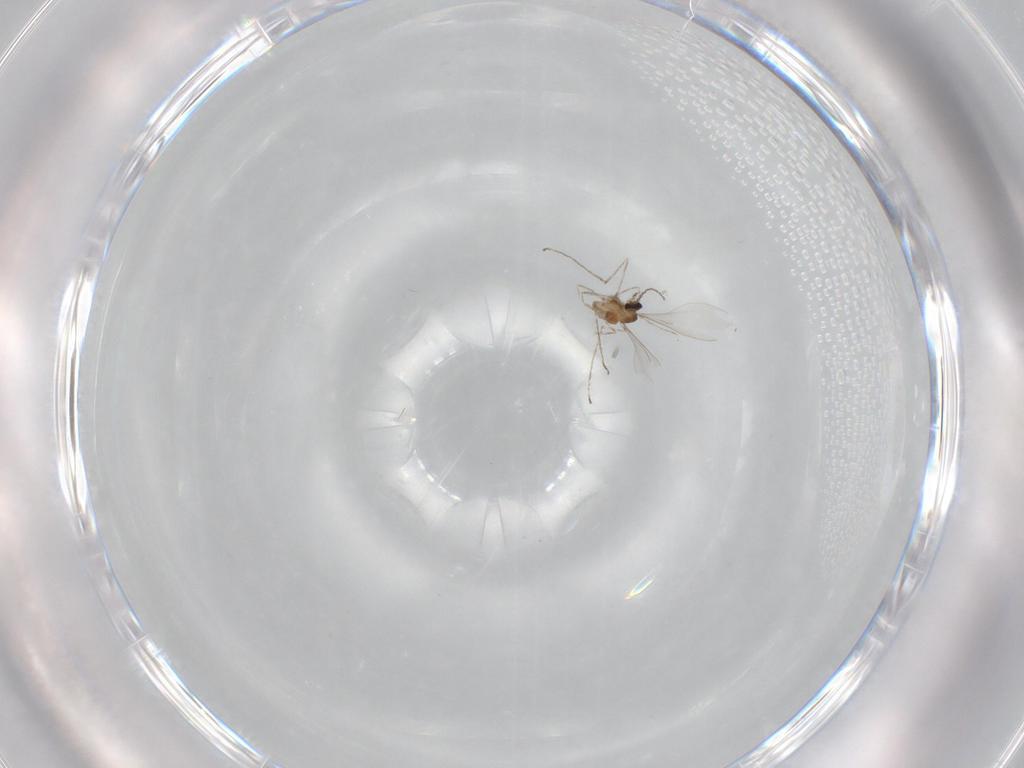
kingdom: Animalia
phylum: Arthropoda
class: Insecta
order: Diptera
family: Cecidomyiidae
